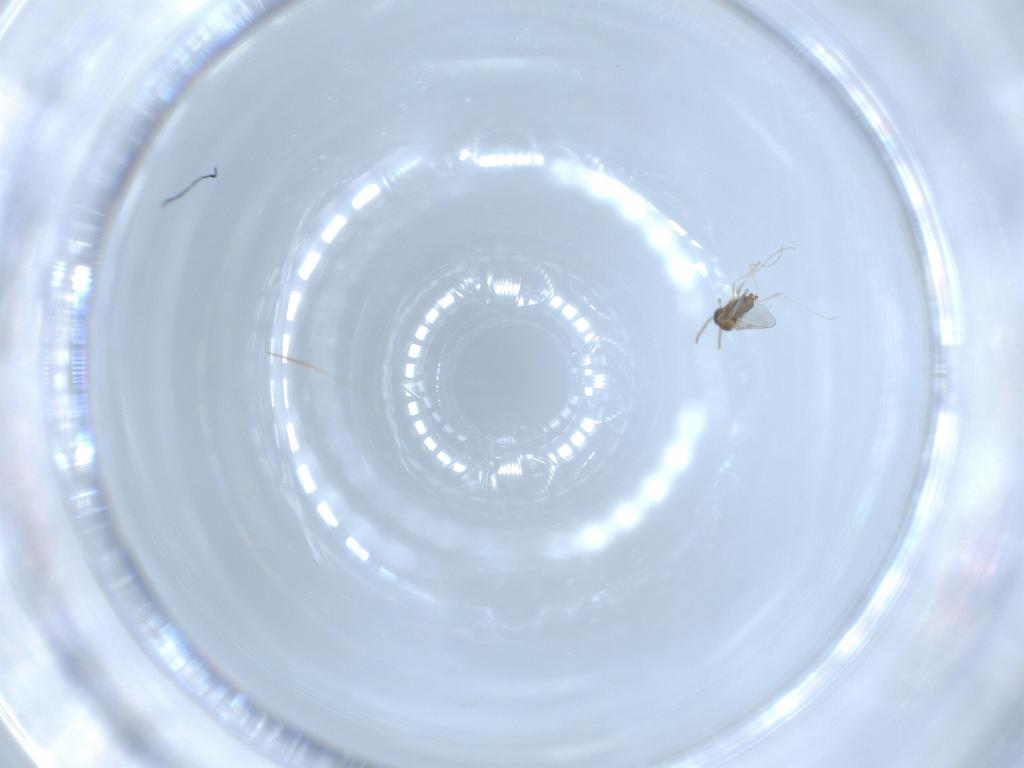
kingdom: Animalia
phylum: Arthropoda
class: Insecta
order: Diptera
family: Cecidomyiidae
